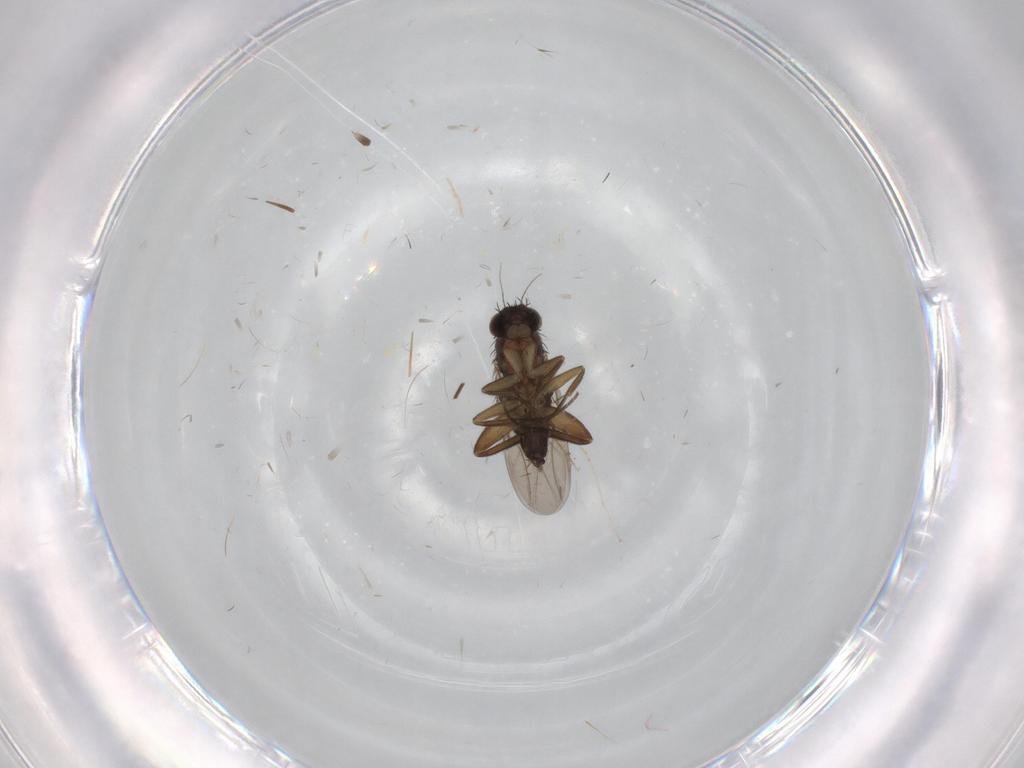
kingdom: Animalia
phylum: Arthropoda
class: Insecta
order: Diptera
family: Phoridae
